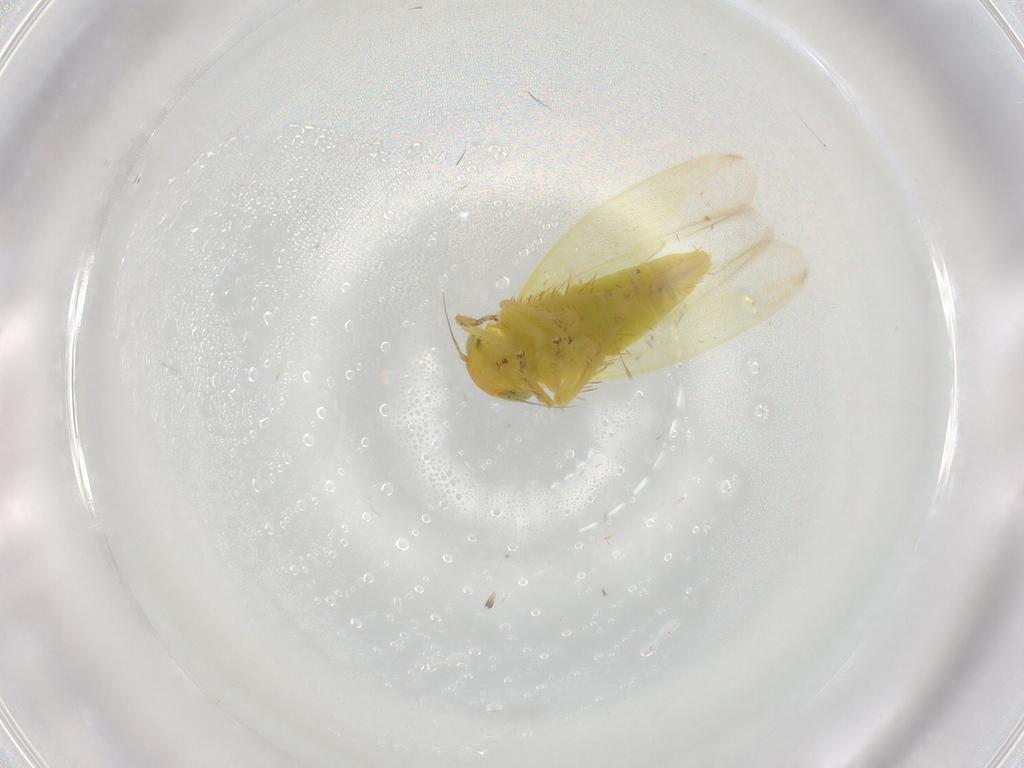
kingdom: Animalia
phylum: Arthropoda
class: Insecta
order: Hemiptera
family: Cicadellidae
